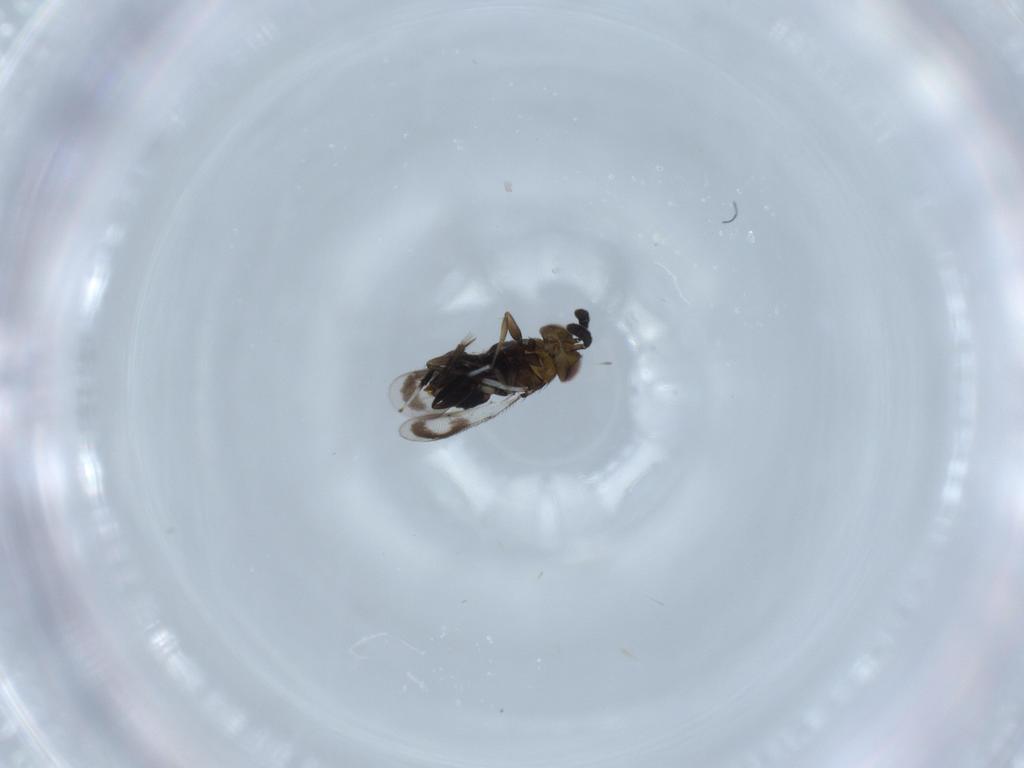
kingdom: Animalia
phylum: Arthropoda
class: Insecta
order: Hymenoptera
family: Aphelinidae
